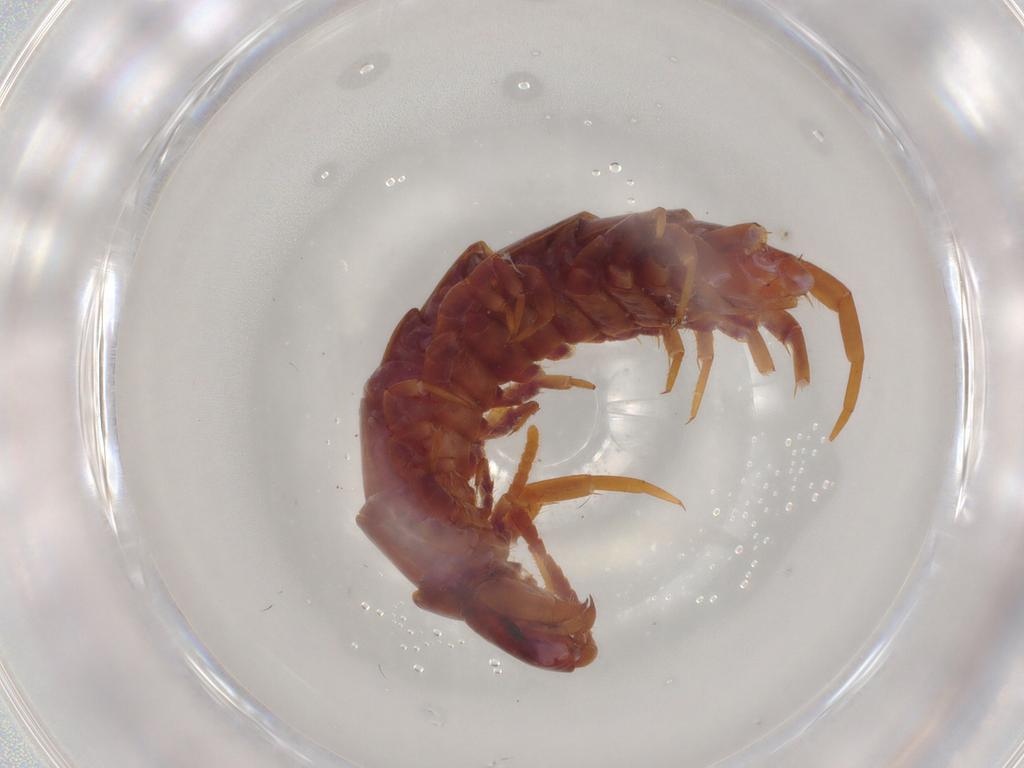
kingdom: Animalia
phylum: Arthropoda
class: Chilopoda
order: Lithobiomorpha
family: Lithobiidae
